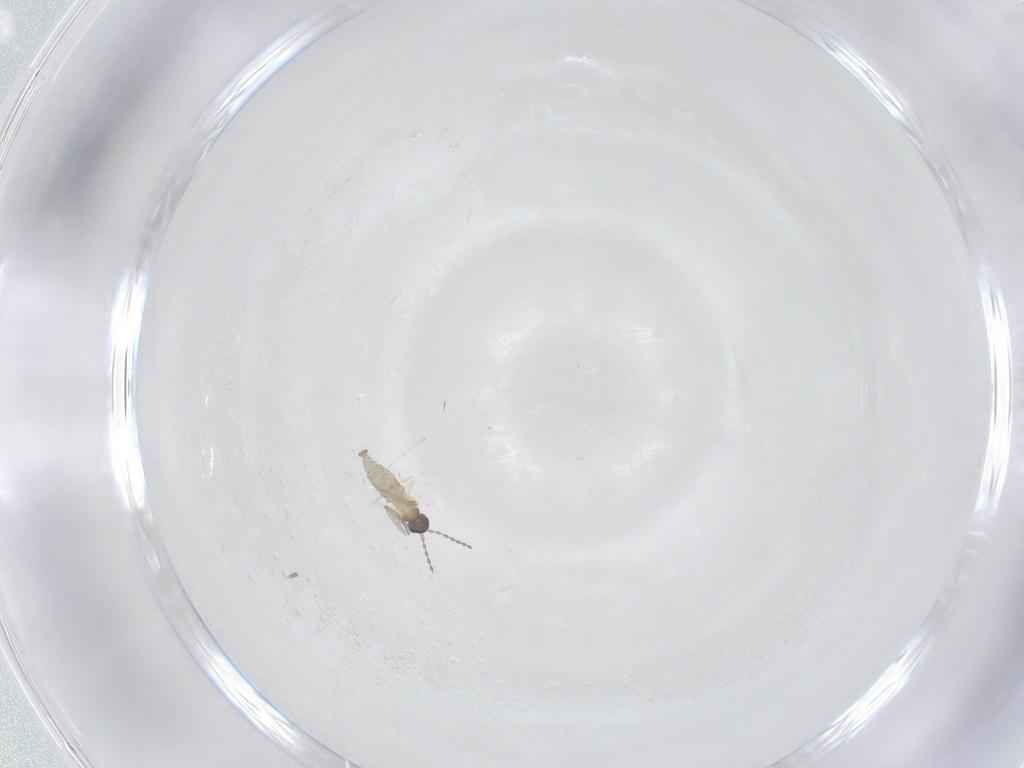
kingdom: Animalia
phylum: Arthropoda
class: Insecta
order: Diptera
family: Cecidomyiidae
